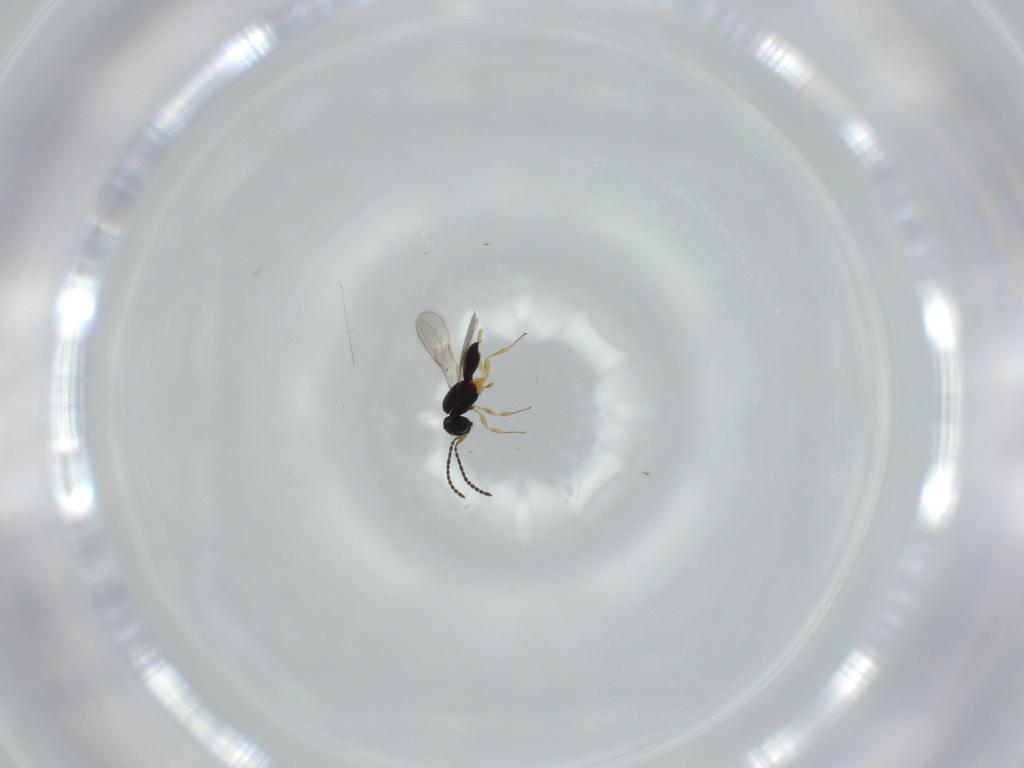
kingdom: Animalia
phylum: Arthropoda
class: Insecta
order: Hymenoptera
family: Scelionidae
